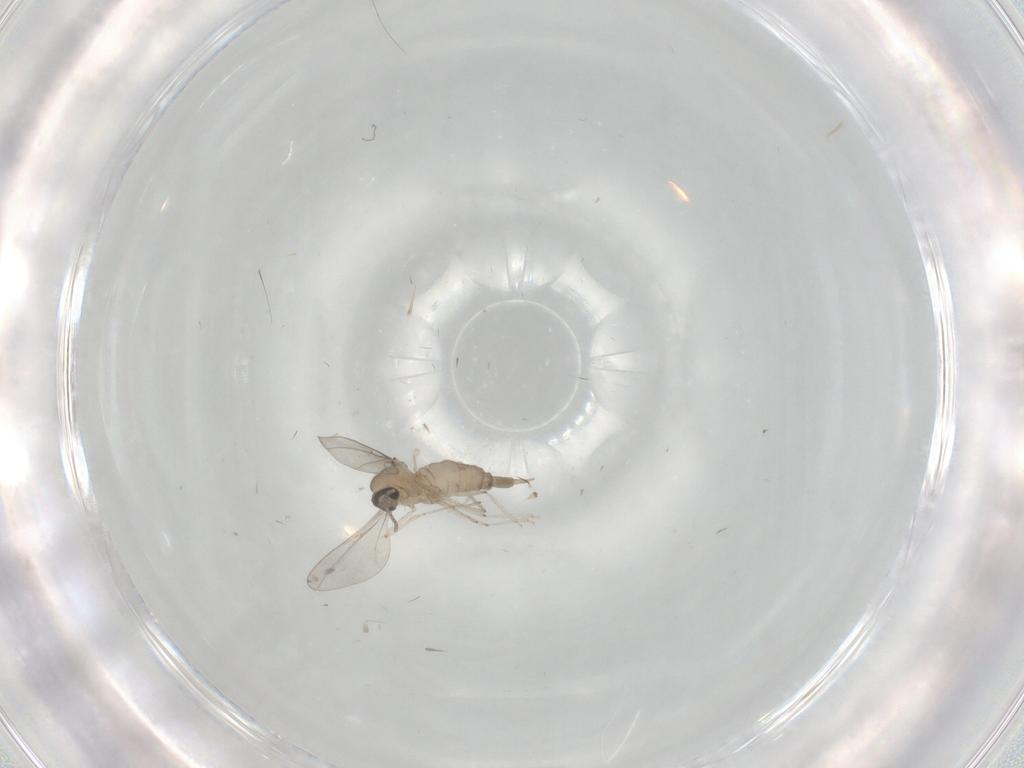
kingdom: Animalia
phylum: Arthropoda
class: Insecta
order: Diptera
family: Cecidomyiidae
